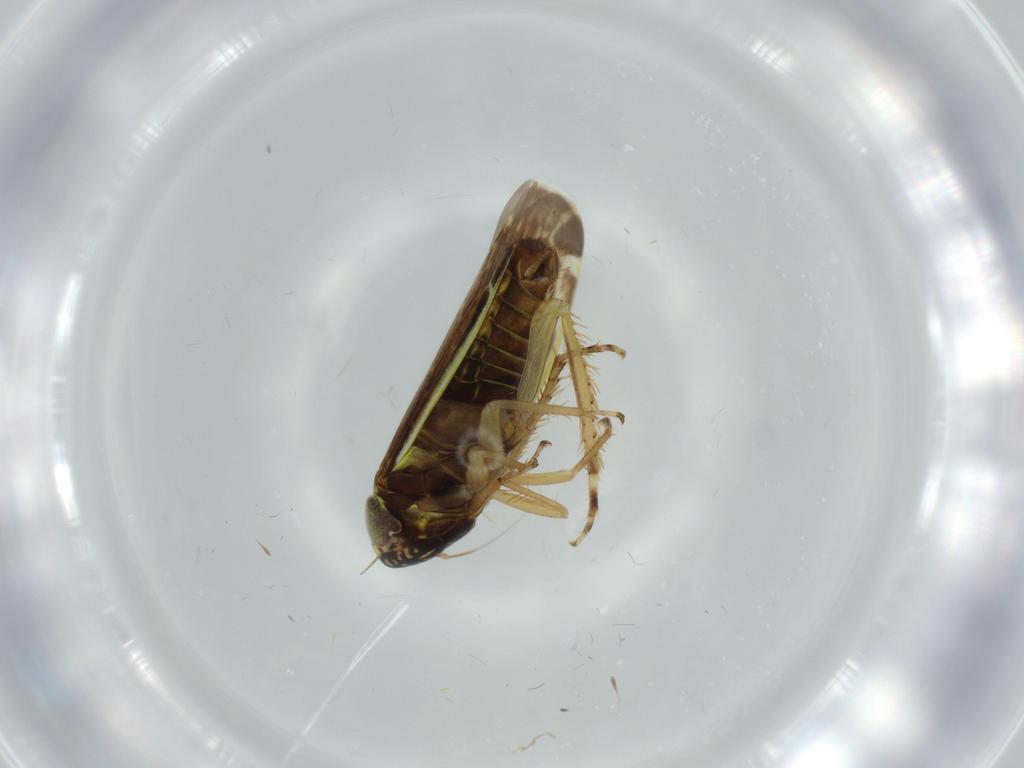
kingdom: Animalia
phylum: Arthropoda
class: Insecta
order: Hemiptera
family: Cicadellidae
